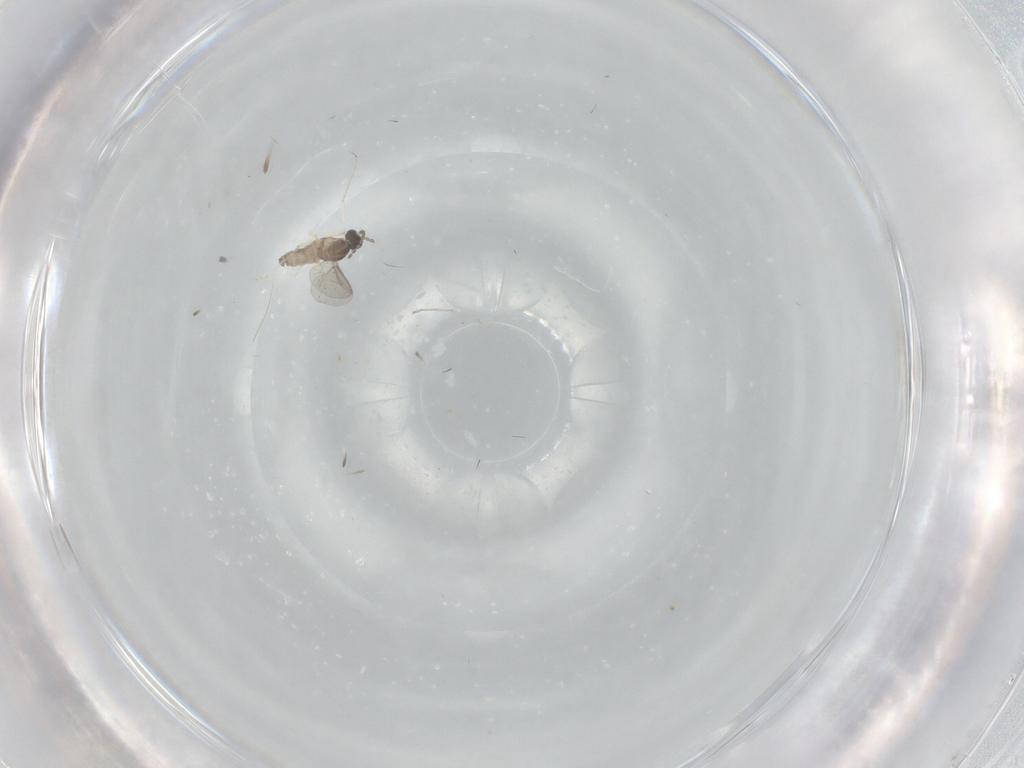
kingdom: Animalia
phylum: Arthropoda
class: Insecta
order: Diptera
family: Cecidomyiidae
